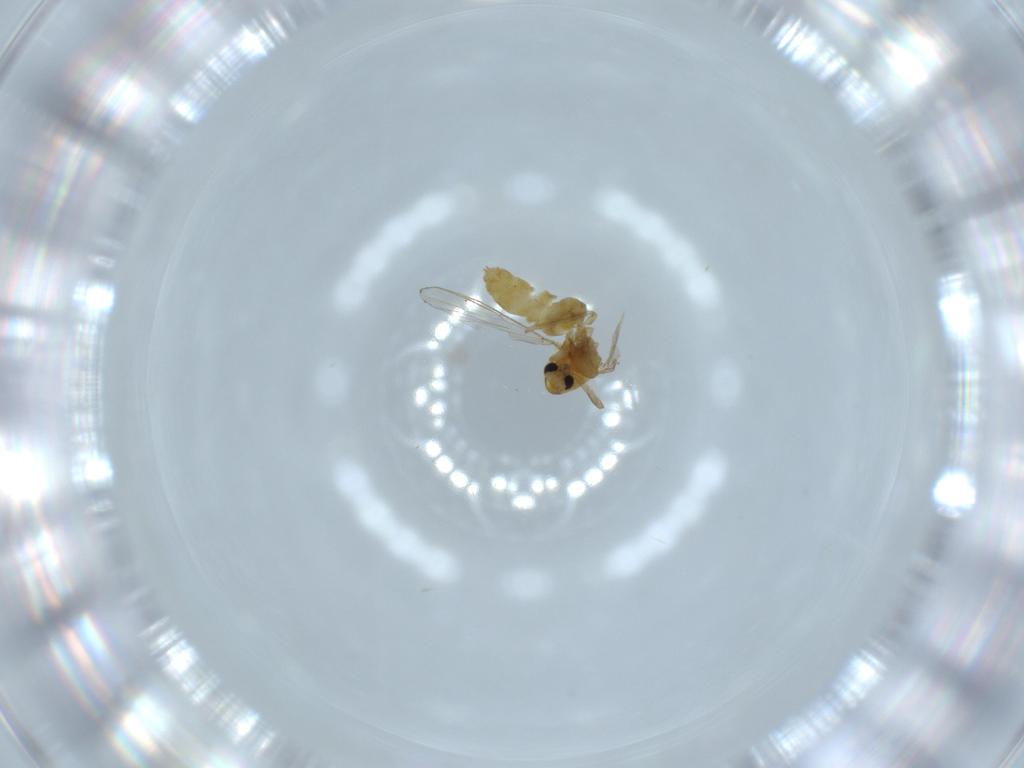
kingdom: Animalia
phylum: Arthropoda
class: Insecta
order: Diptera
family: Chironomidae
